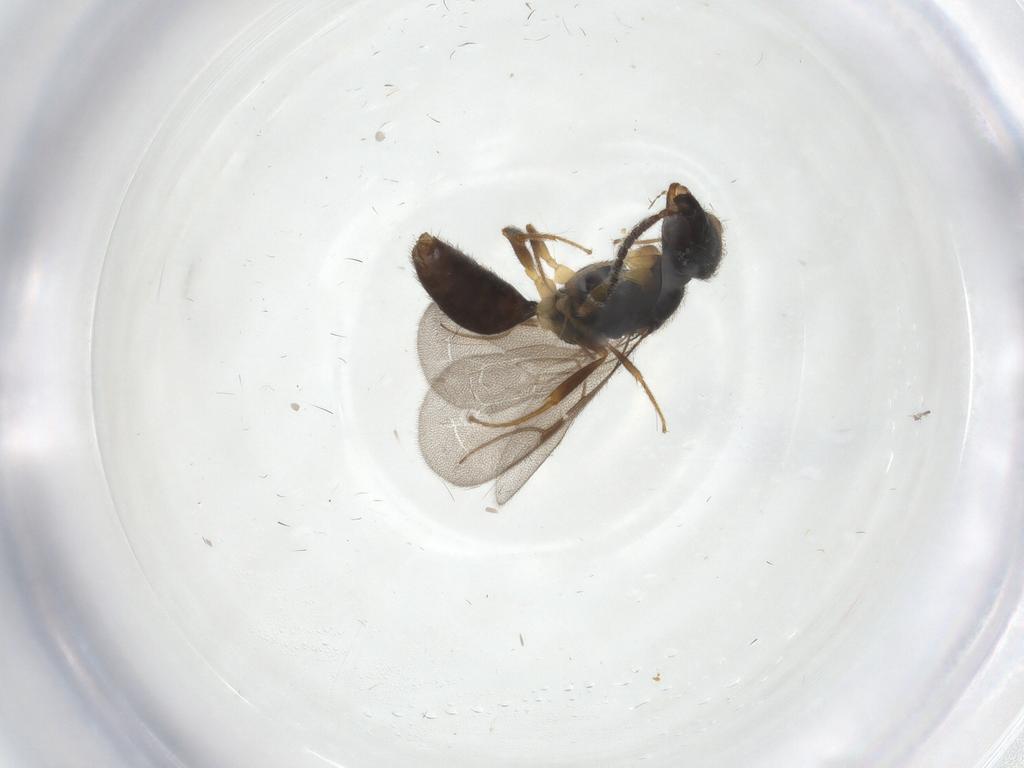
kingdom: Animalia
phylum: Arthropoda
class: Insecta
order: Hymenoptera
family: Bethylidae
